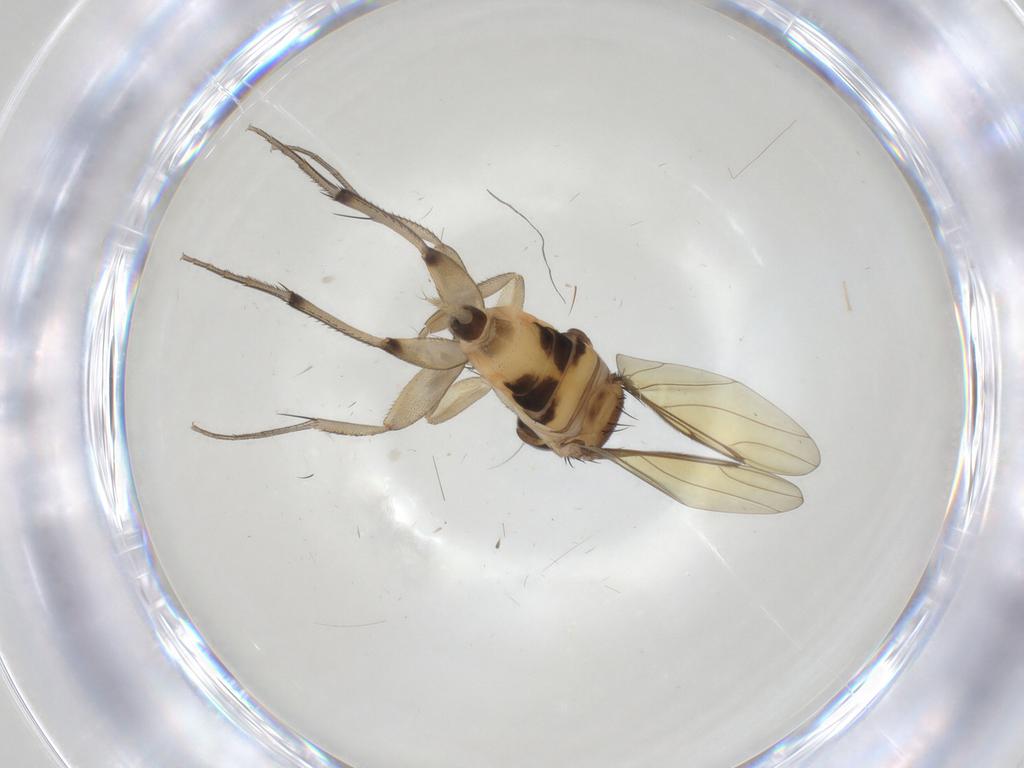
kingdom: Animalia
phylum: Arthropoda
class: Insecta
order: Diptera
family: Phoridae
